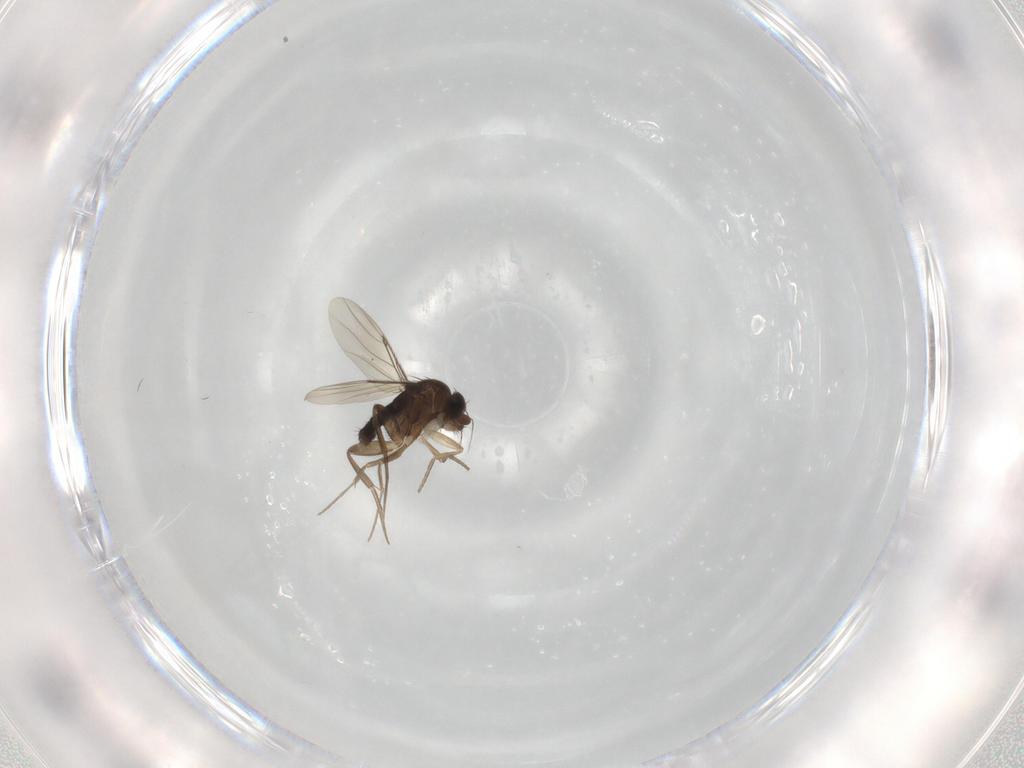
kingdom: Animalia
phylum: Arthropoda
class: Insecta
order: Diptera
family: Phoridae
